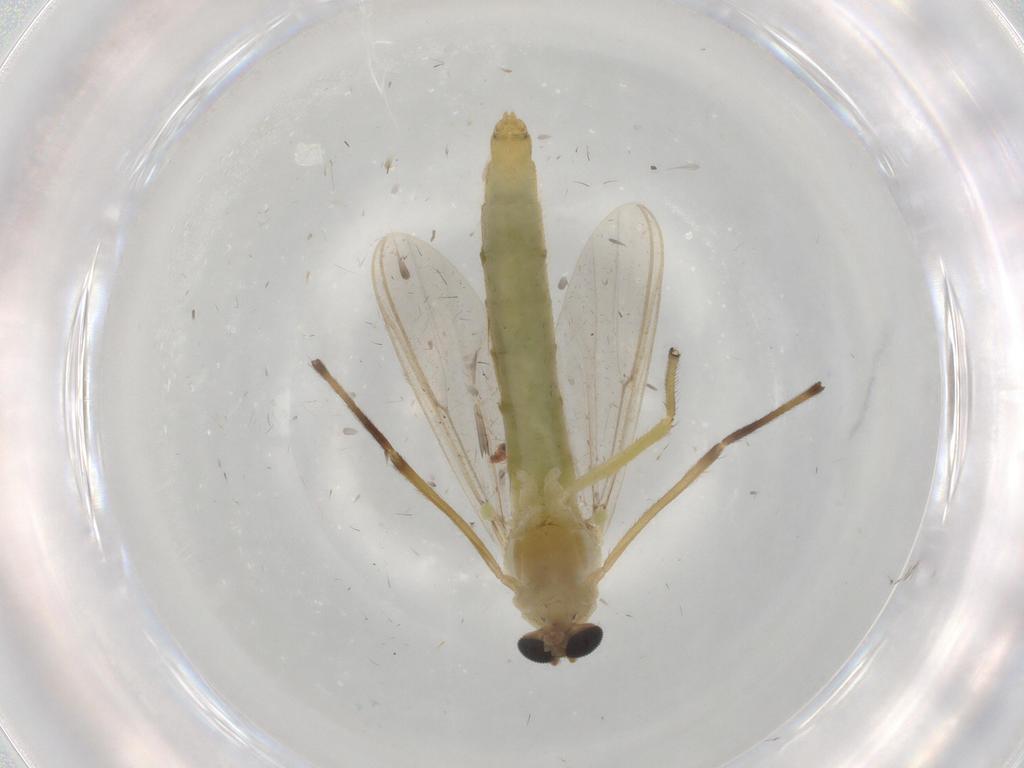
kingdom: Animalia
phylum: Arthropoda
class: Insecta
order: Diptera
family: Chironomidae
